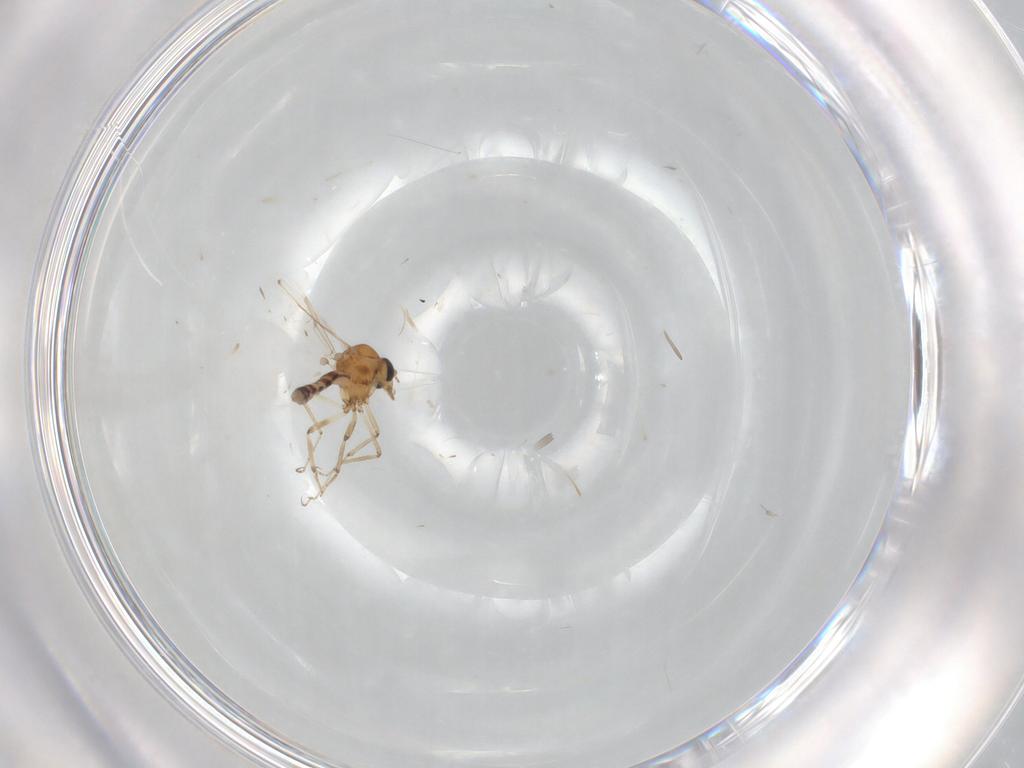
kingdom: Animalia
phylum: Arthropoda
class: Insecta
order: Diptera
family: Ceratopogonidae
